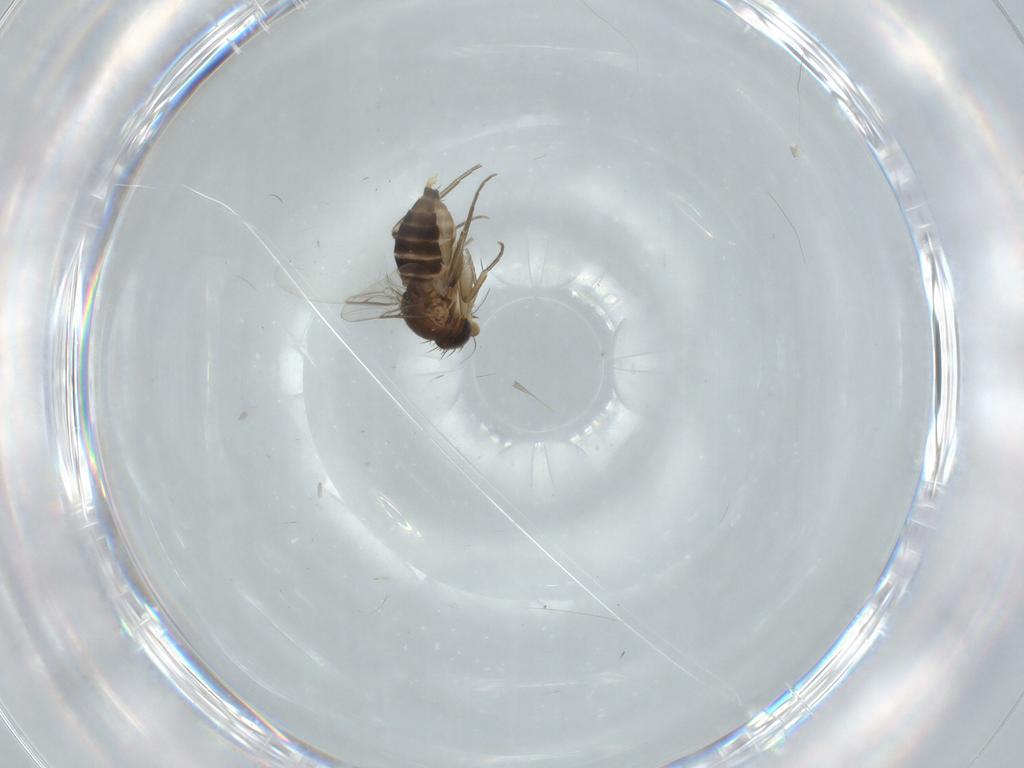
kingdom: Animalia
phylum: Arthropoda
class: Insecta
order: Diptera
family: Phoridae
